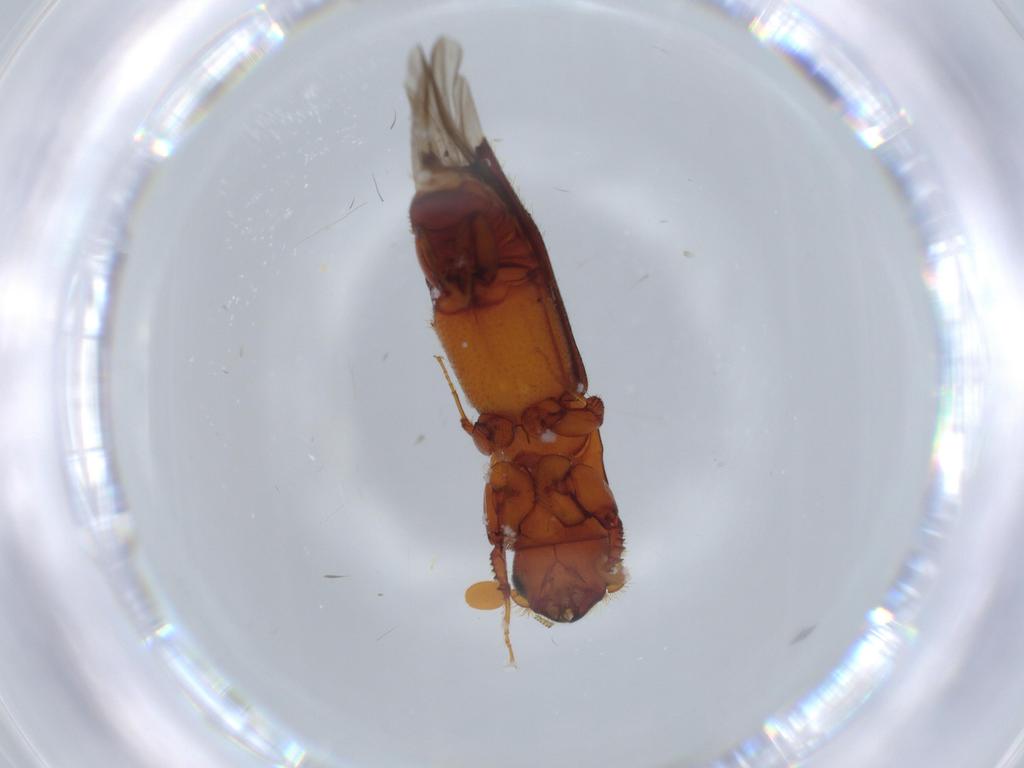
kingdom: Animalia
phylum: Arthropoda
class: Insecta
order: Coleoptera
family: Curculionidae
